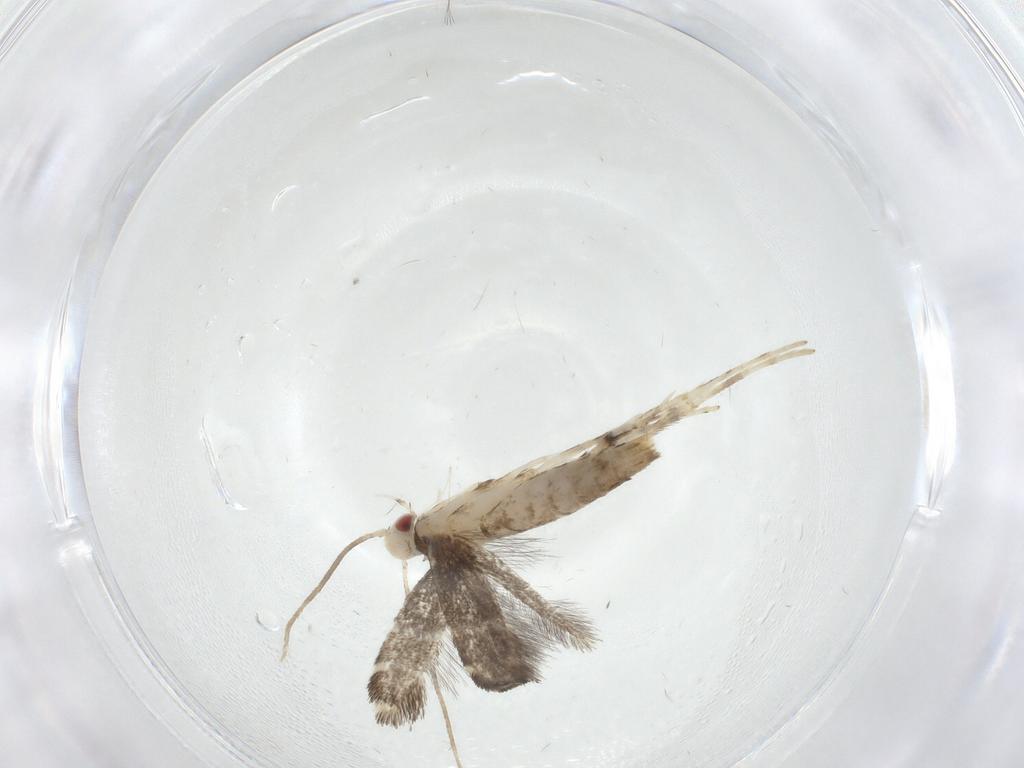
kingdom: Animalia
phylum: Arthropoda
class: Insecta
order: Lepidoptera
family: Gracillariidae
